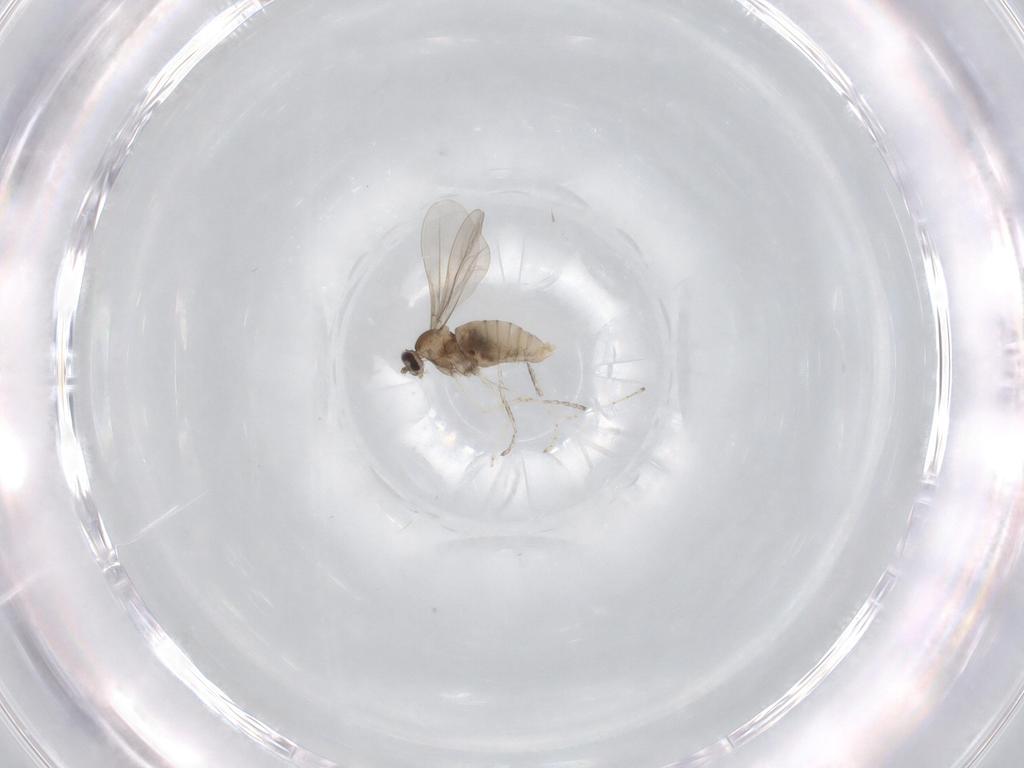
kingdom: Animalia
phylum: Arthropoda
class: Insecta
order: Diptera
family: Cecidomyiidae
